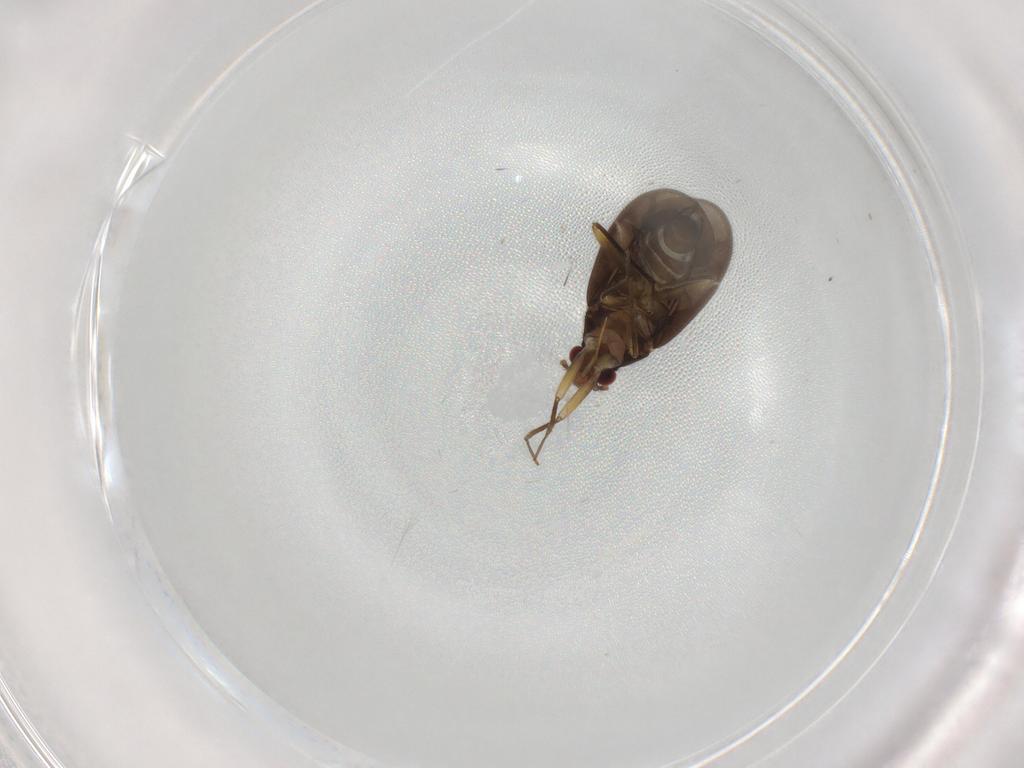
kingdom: Animalia
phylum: Arthropoda
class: Insecta
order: Hemiptera
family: Ceratocombidae
